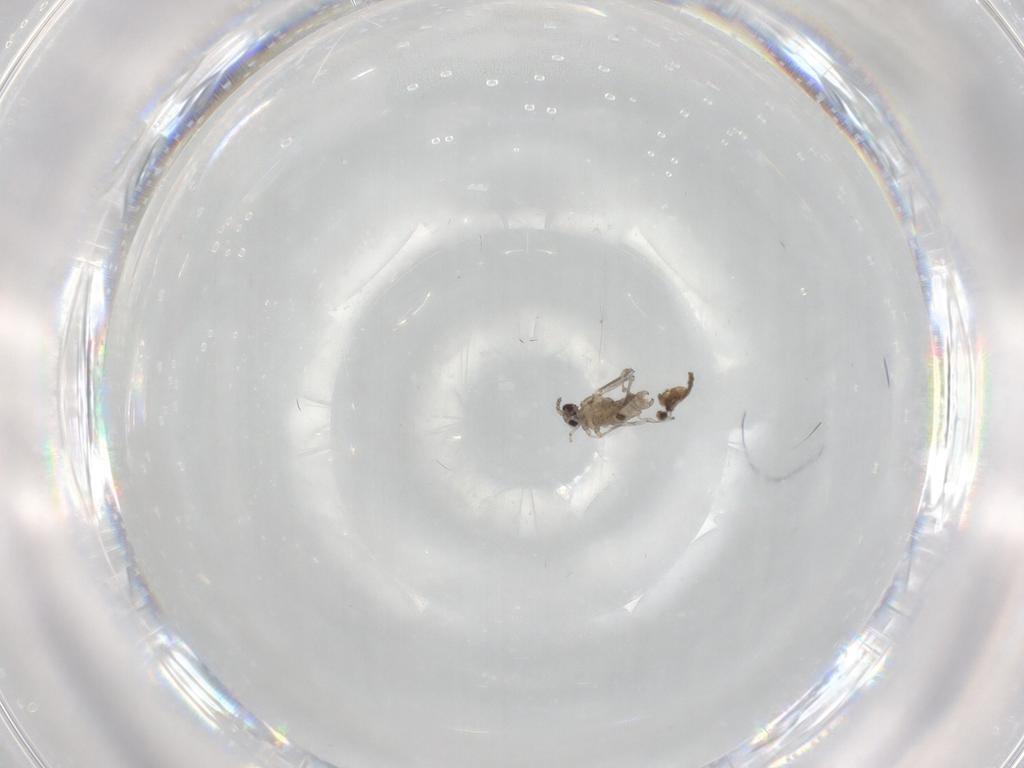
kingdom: Animalia
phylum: Arthropoda
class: Insecta
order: Diptera
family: Cecidomyiidae
